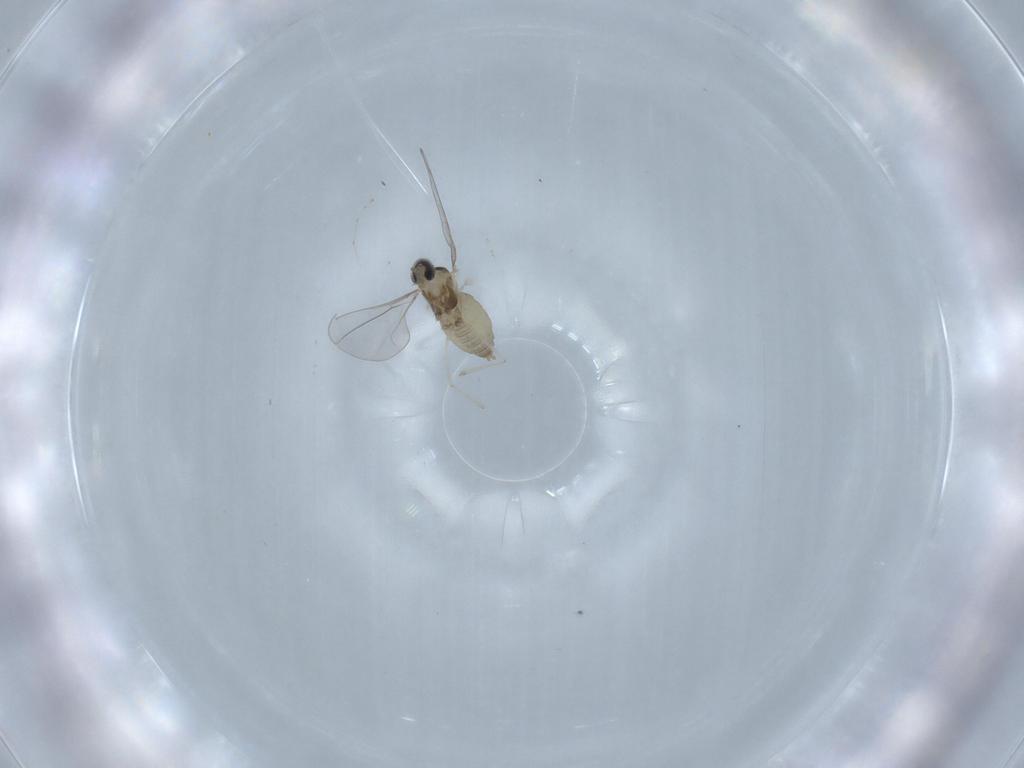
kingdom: Animalia
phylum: Arthropoda
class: Insecta
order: Diptera
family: Cecidomyiidae
